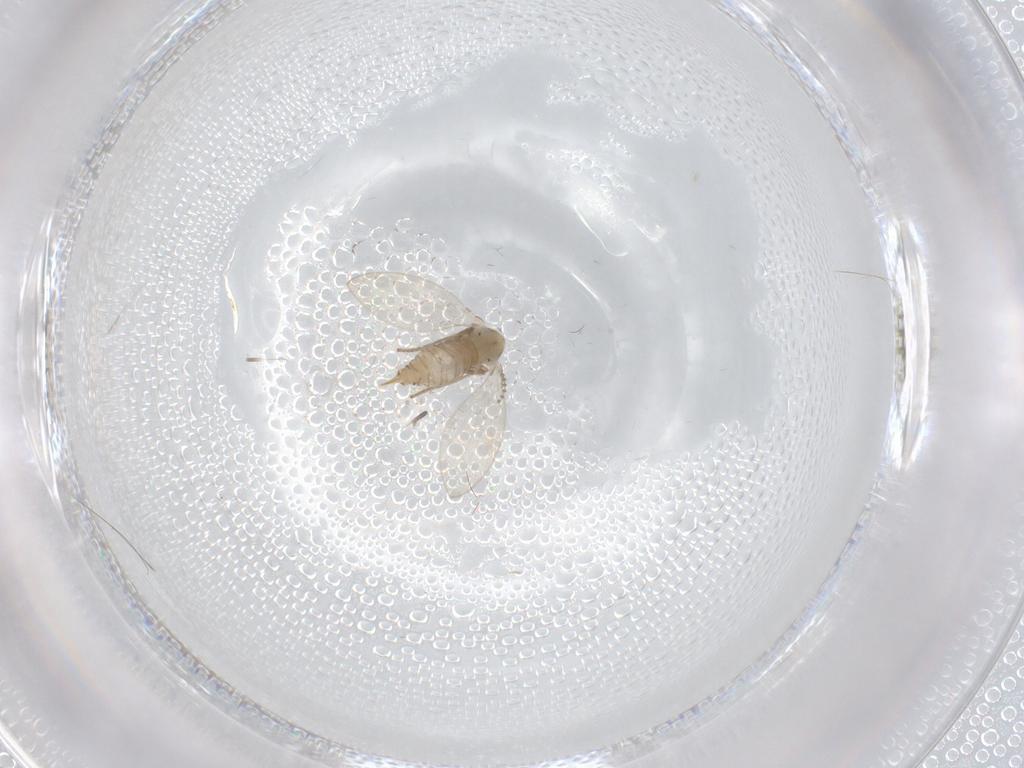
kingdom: Animalia
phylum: Arthropoda
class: Insecta
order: Diptera
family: Psychodidae
